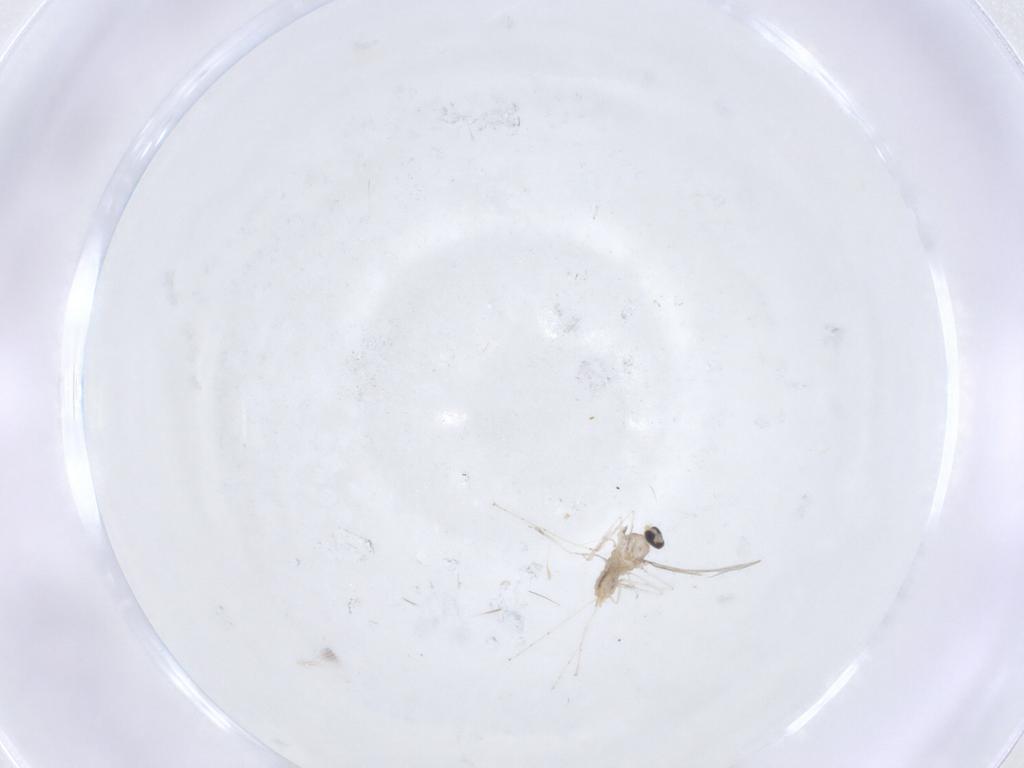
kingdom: Animalia
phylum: Arthropoda
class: Insecta
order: Diptera
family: Cecidomyiidae
